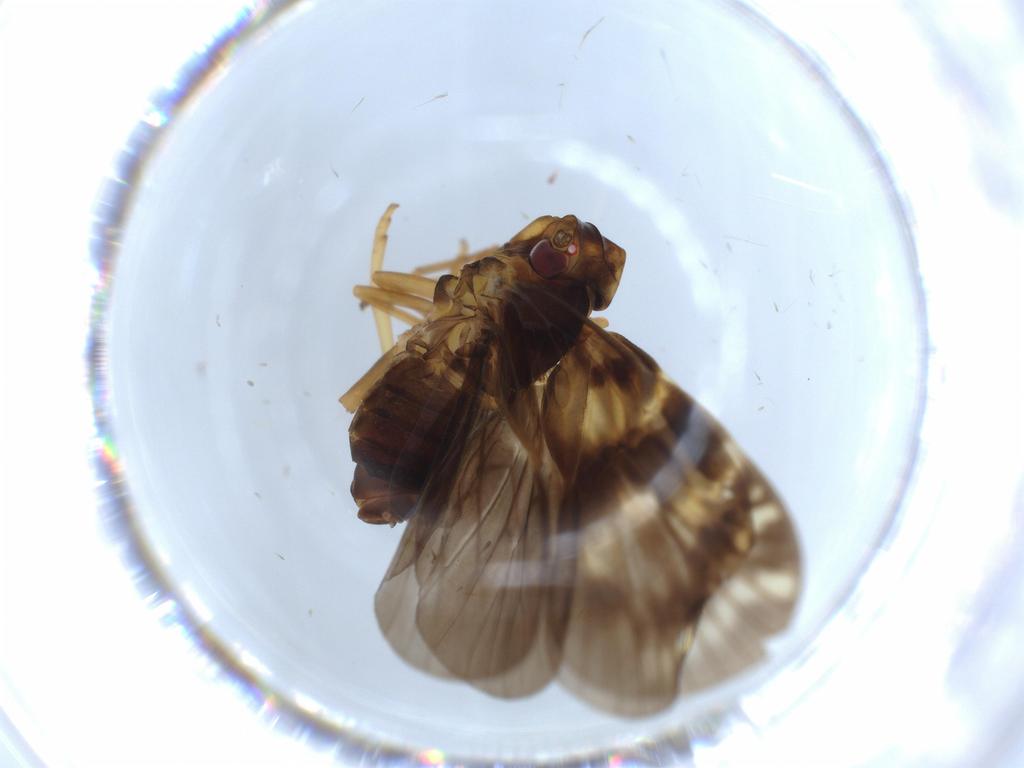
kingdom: Animalia
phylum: Arthropoda
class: Insecta
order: Hemiptera
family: Cixiidae
